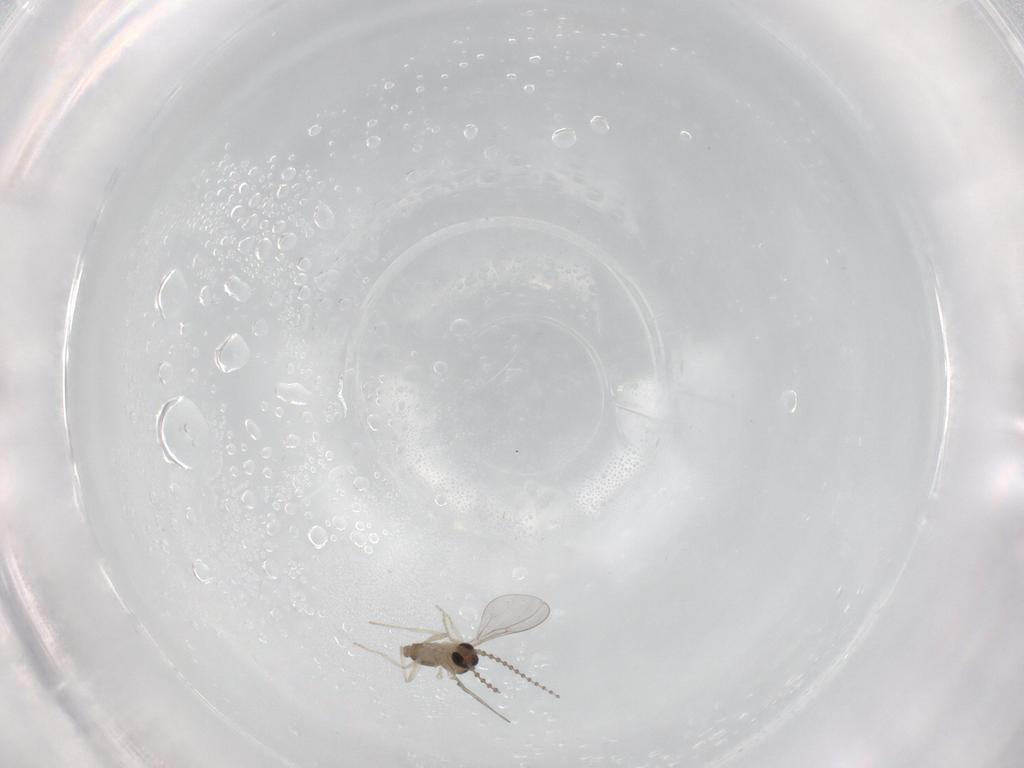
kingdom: Animalia
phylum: Arthropoda
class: Insecta
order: Diptera
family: Cecidomyiidae
